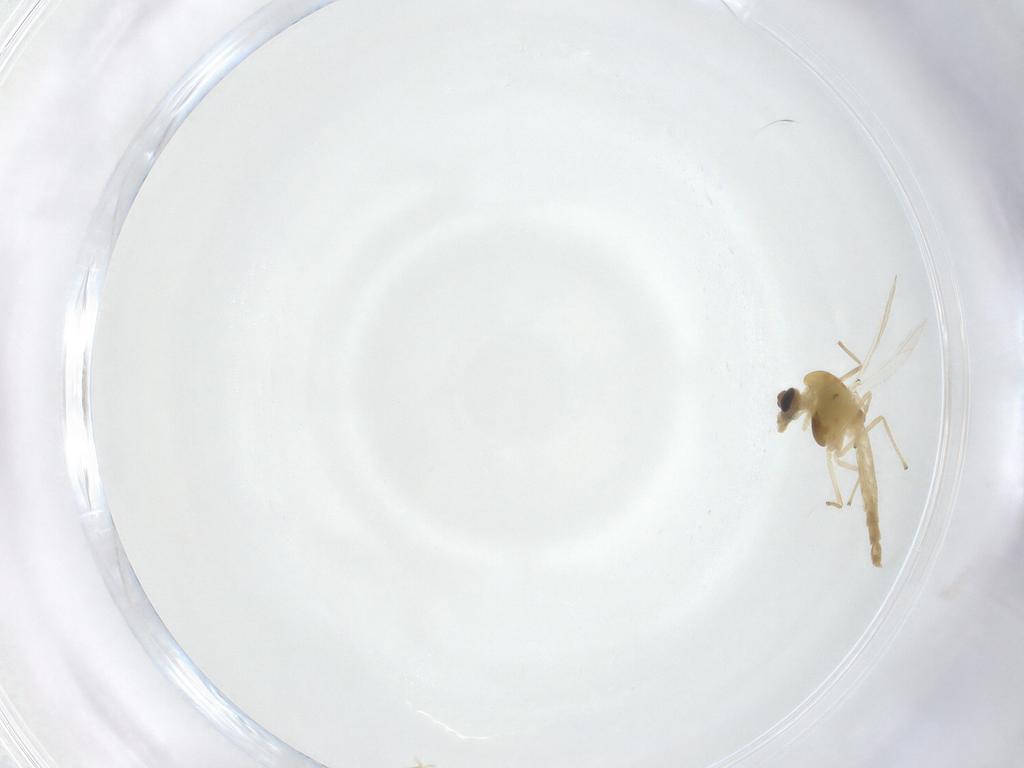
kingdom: Animalia
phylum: Arthropoda
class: Insecta
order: Diptera
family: Chironomidae
